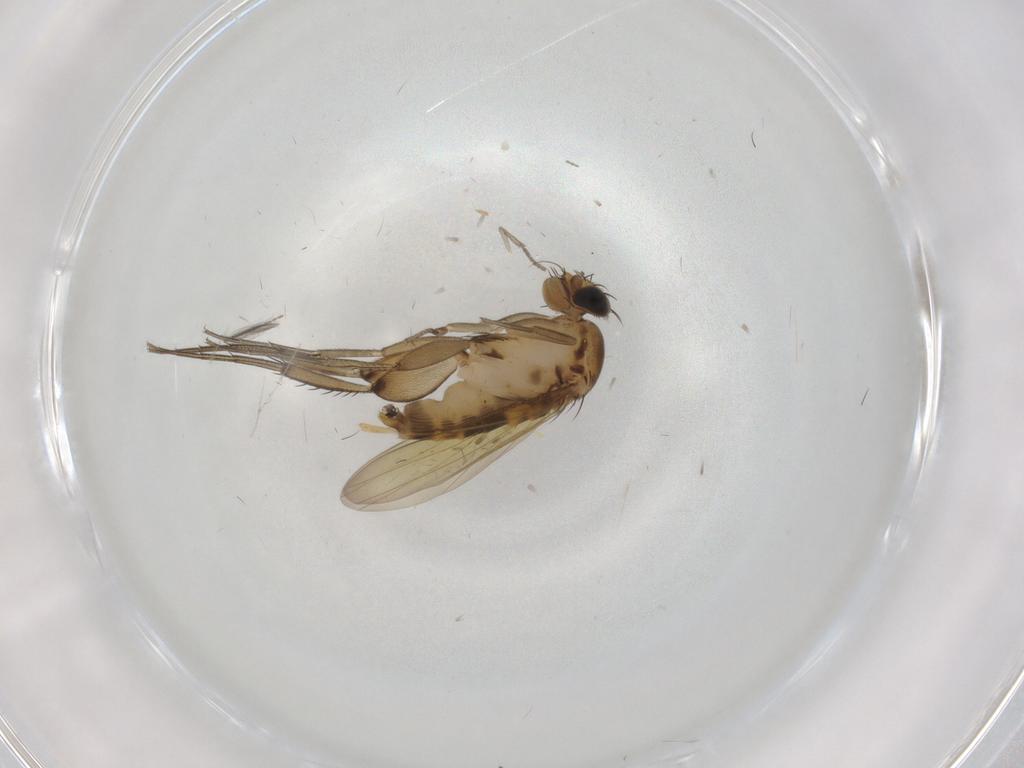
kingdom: Animalia
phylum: Arthropoda
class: Insecta
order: Diptera
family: Phoridae
